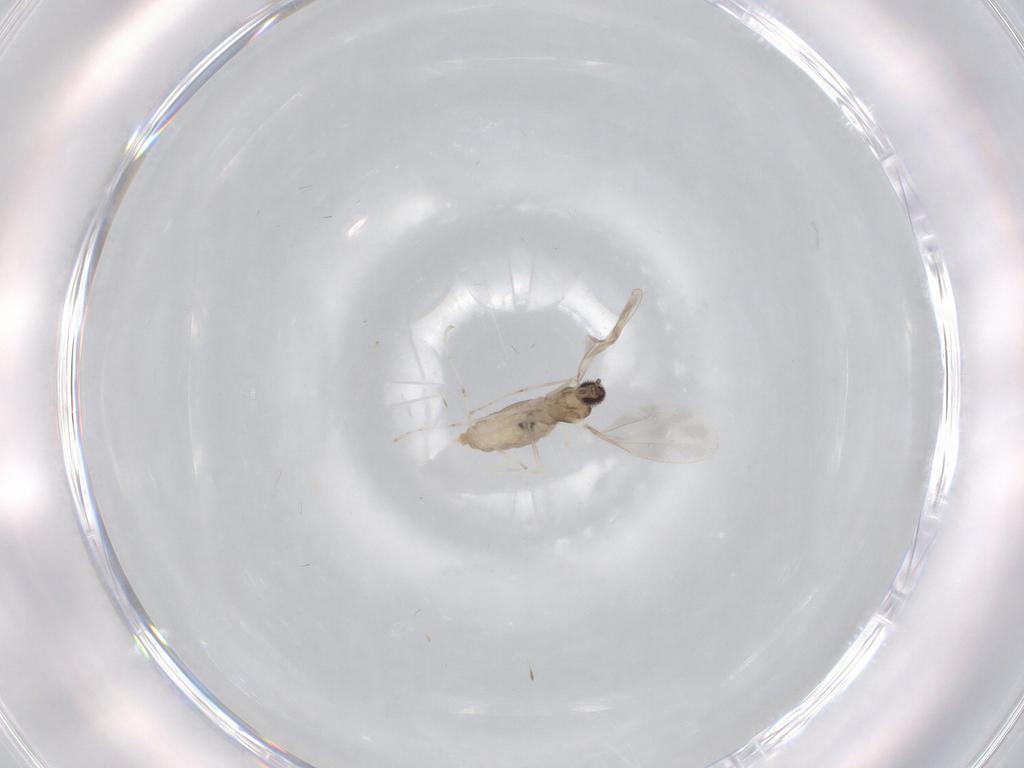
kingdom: Animalia
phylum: Arthropoda
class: Insecta
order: Diptera
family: Cecidomyiidae
